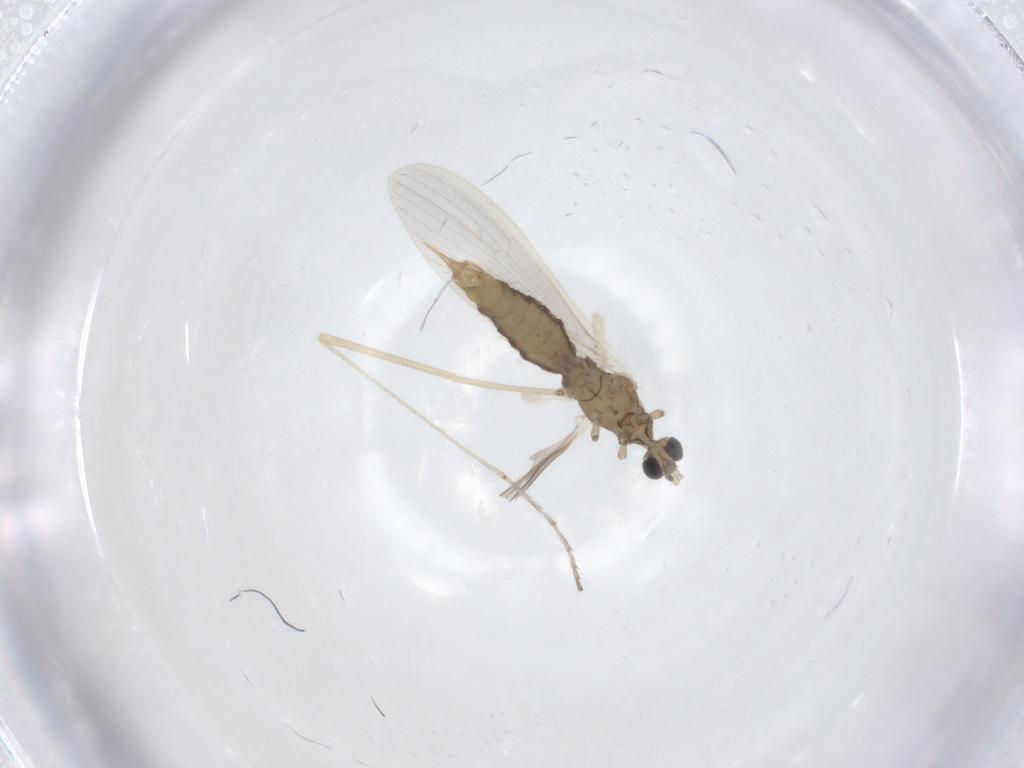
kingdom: Animalia
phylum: Arthropoda
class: Insecta
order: Diptera
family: Limoniidae
